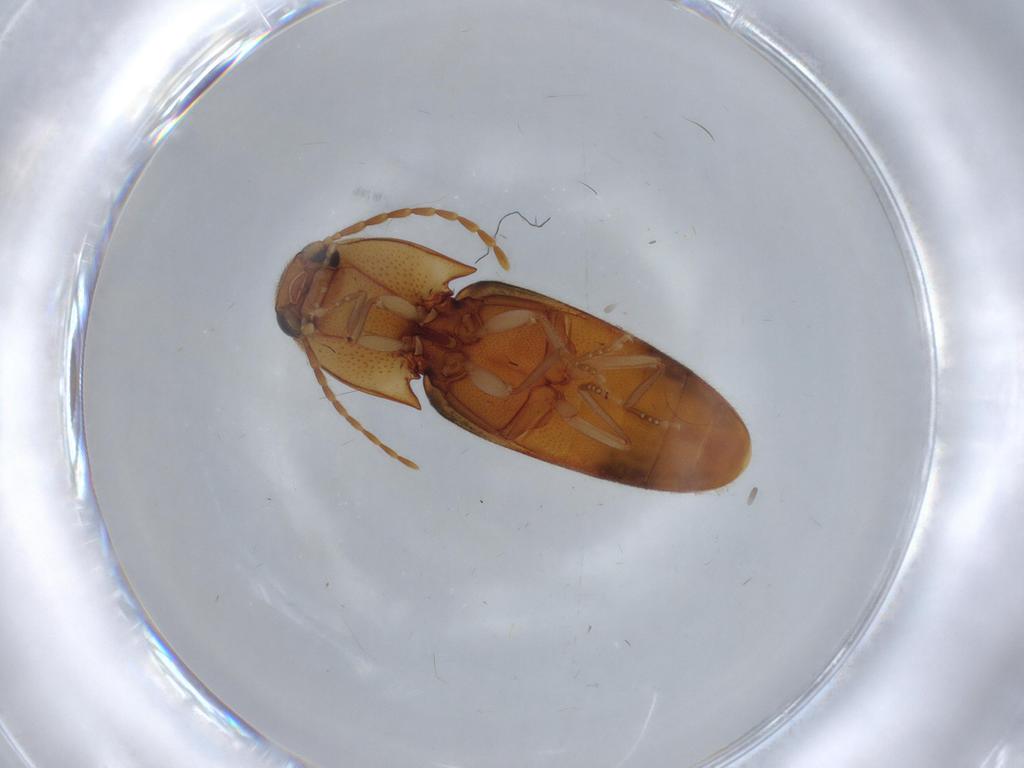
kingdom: Animalia
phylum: Arthropoda
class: Insecta
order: Coleoptera
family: Elateridae
